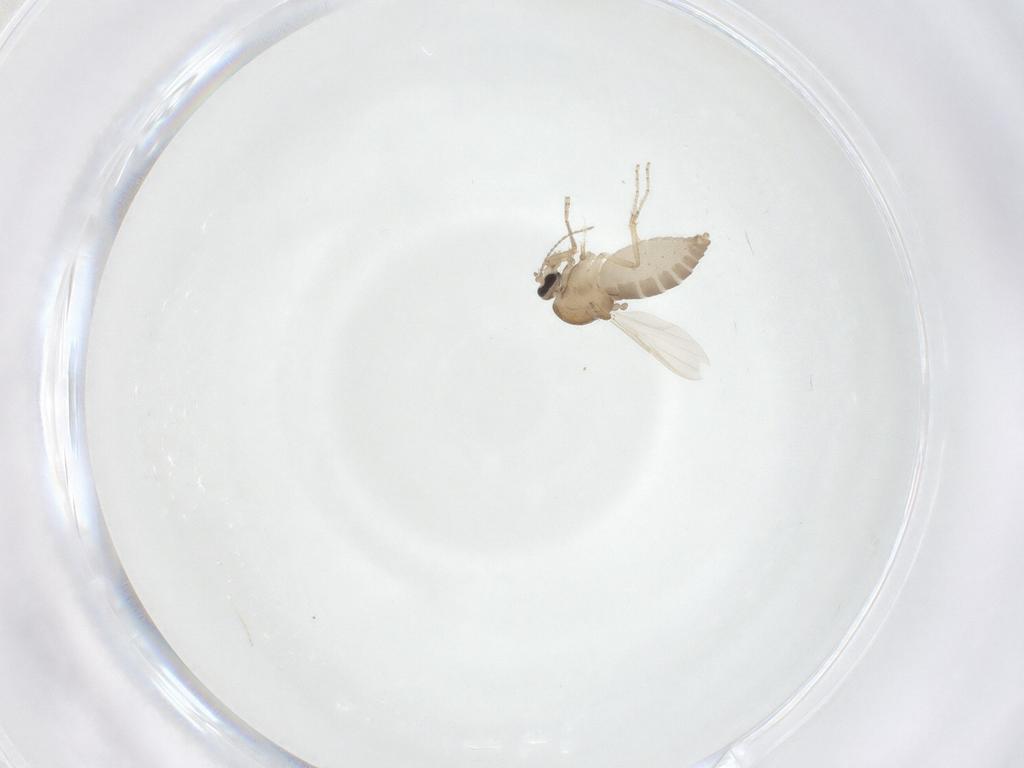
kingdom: Animalia
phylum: Arthropoda
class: Insecta
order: Diptera
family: Ceratopogonidae
